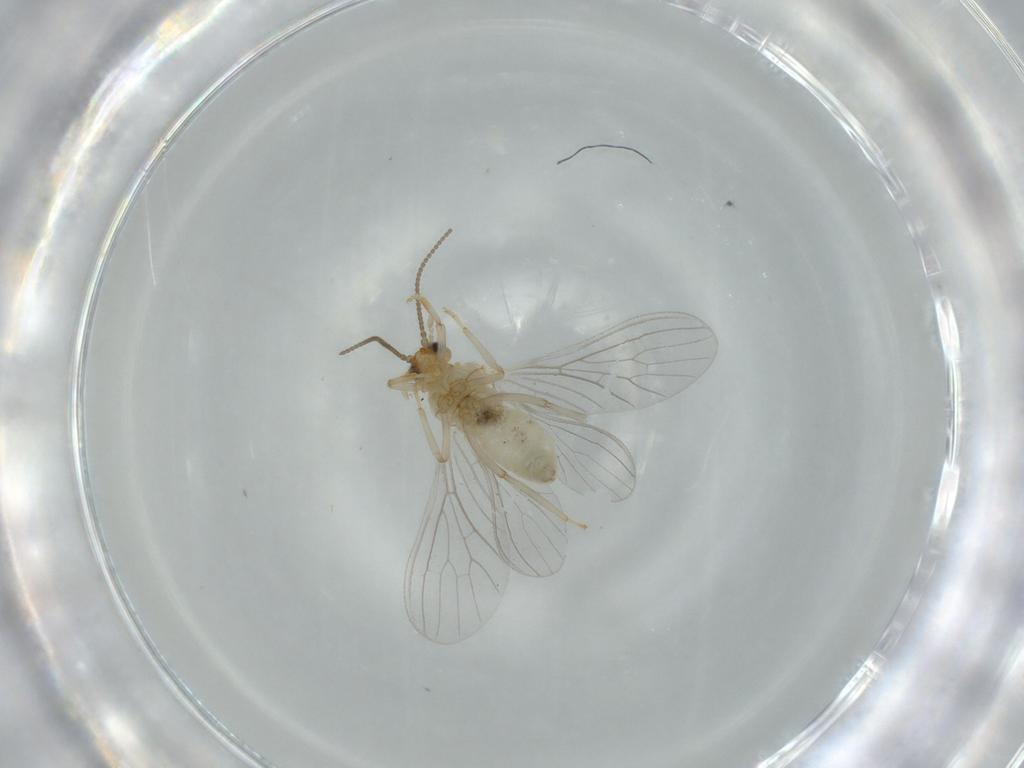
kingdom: Animalia
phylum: Arthropoda
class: Insecta
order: Neuroptera
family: Coniopterygidae
